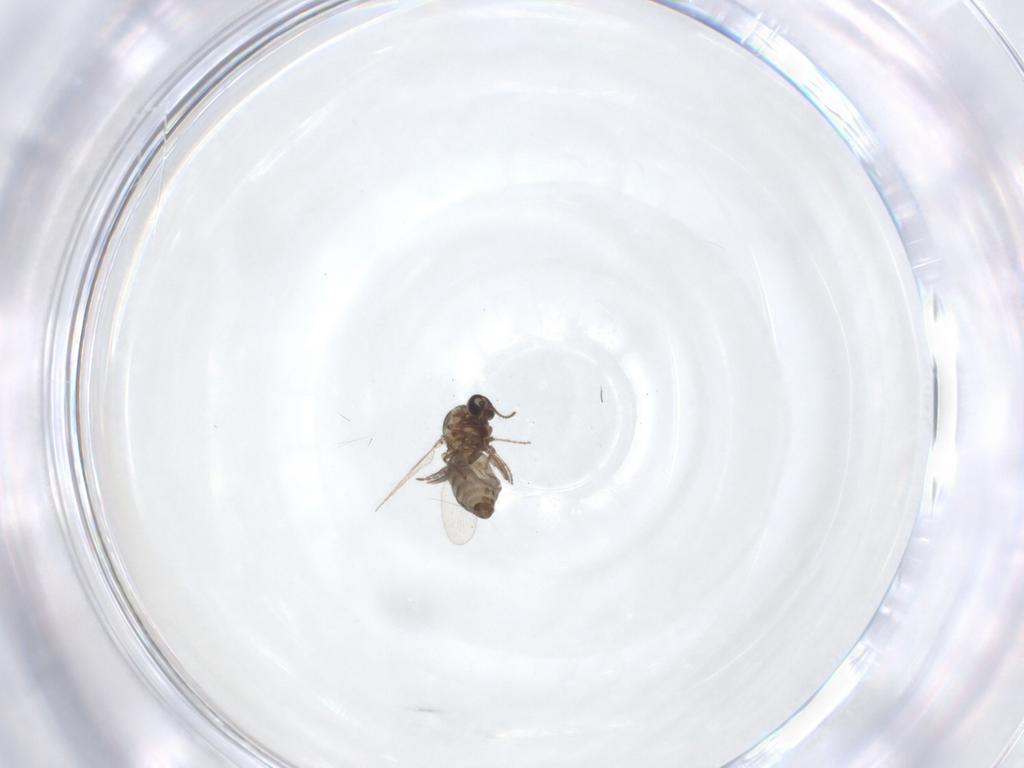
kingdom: Animalia
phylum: Arthropoda
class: Insecta
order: Diptera
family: Ceratopogonidae
